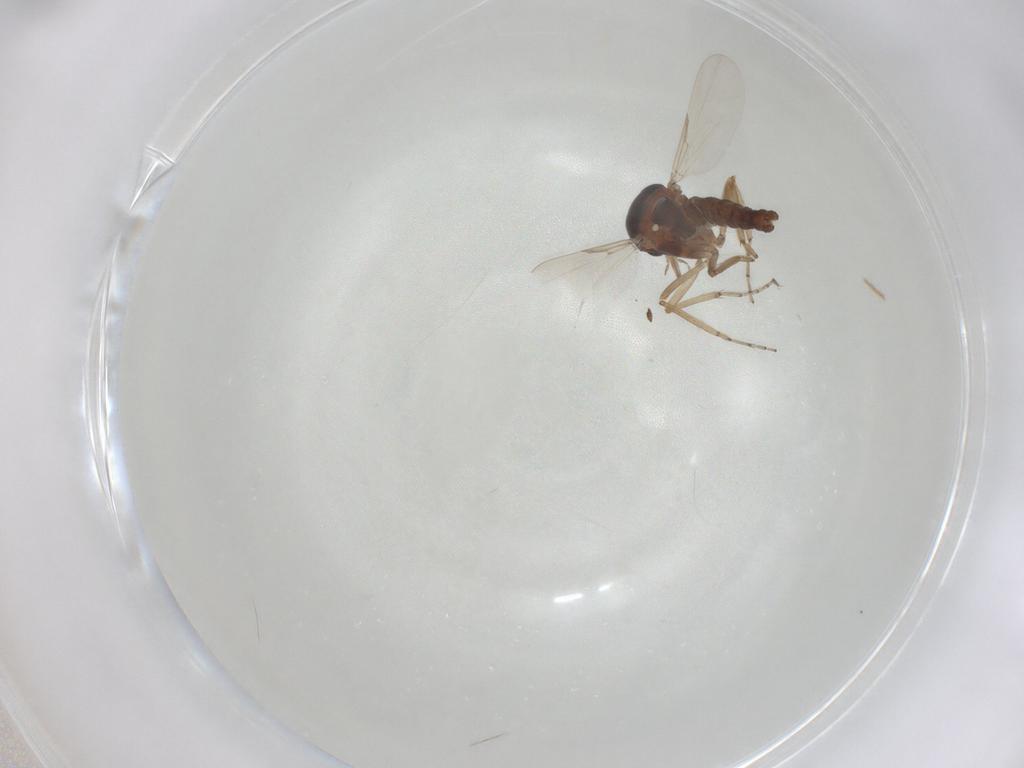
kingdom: Animalia
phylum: Arthropoda
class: Insecta
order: Diptera
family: Ceratopogonidae
